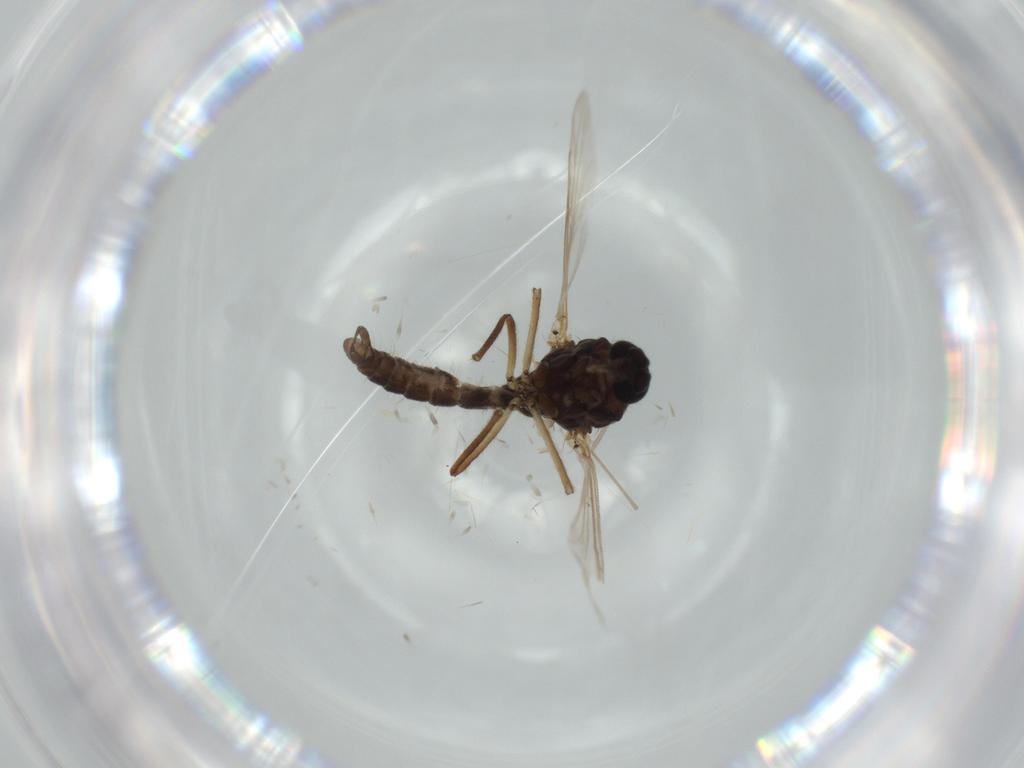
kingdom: Animalia
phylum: Arthropoda
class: Insecta
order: Diptera
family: Ceratopogonidae
